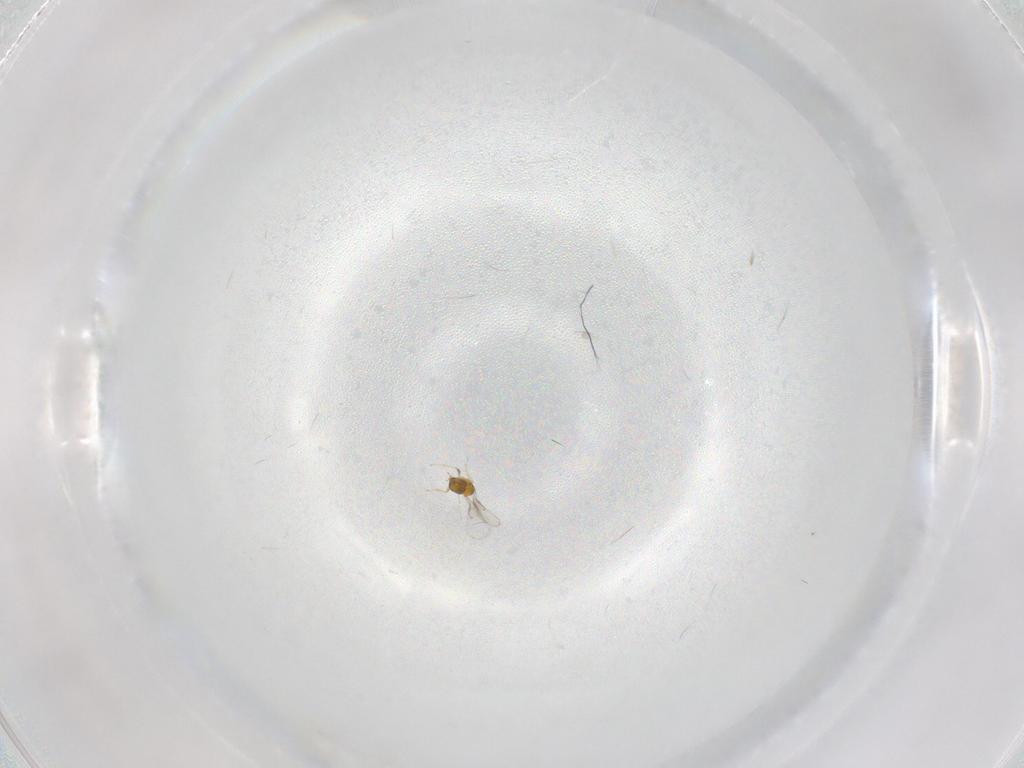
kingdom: Animalia
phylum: Arthropoda
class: Insecta
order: Hymenoptera
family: Trichogrammatidae
